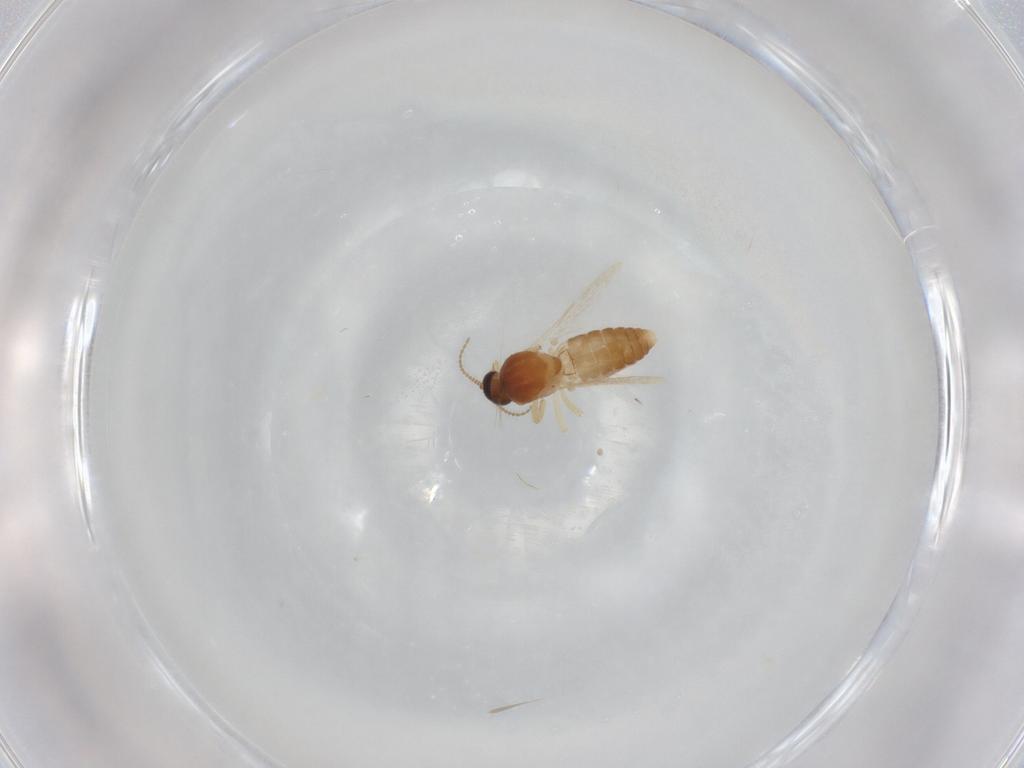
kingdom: Animalia
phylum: Arthropoda
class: Insecta
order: Diptera
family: Ceratopogonidae
